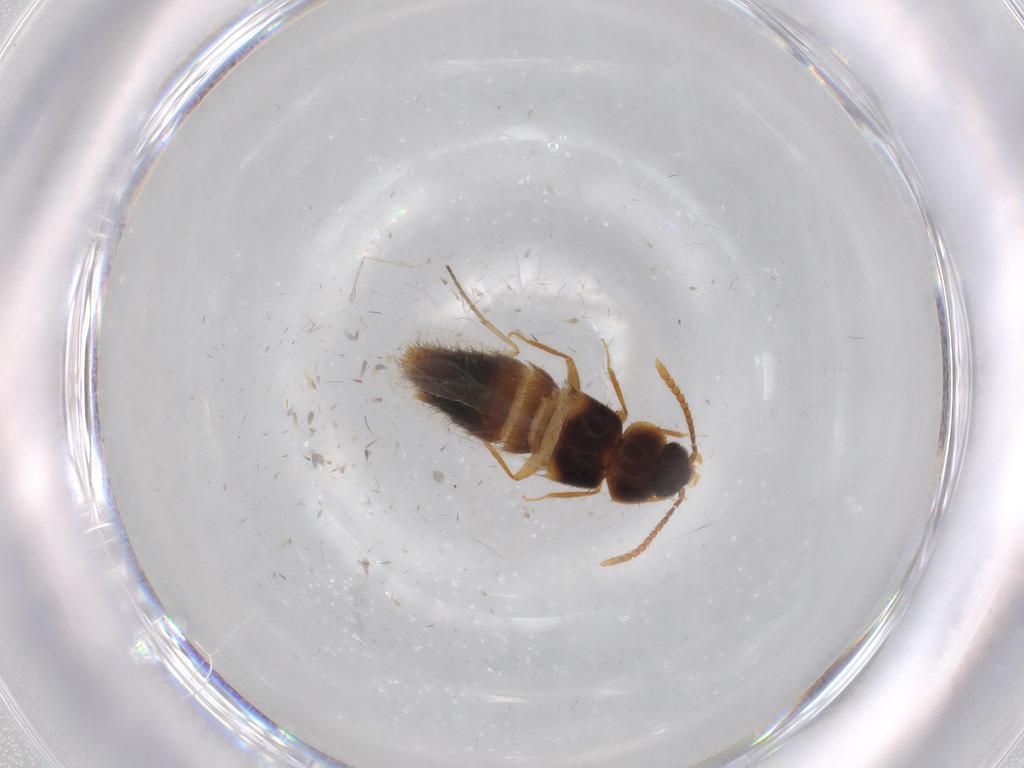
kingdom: Animalia
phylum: Arthropoda
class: Insecta
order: Coleoptera
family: Staphylinidae
